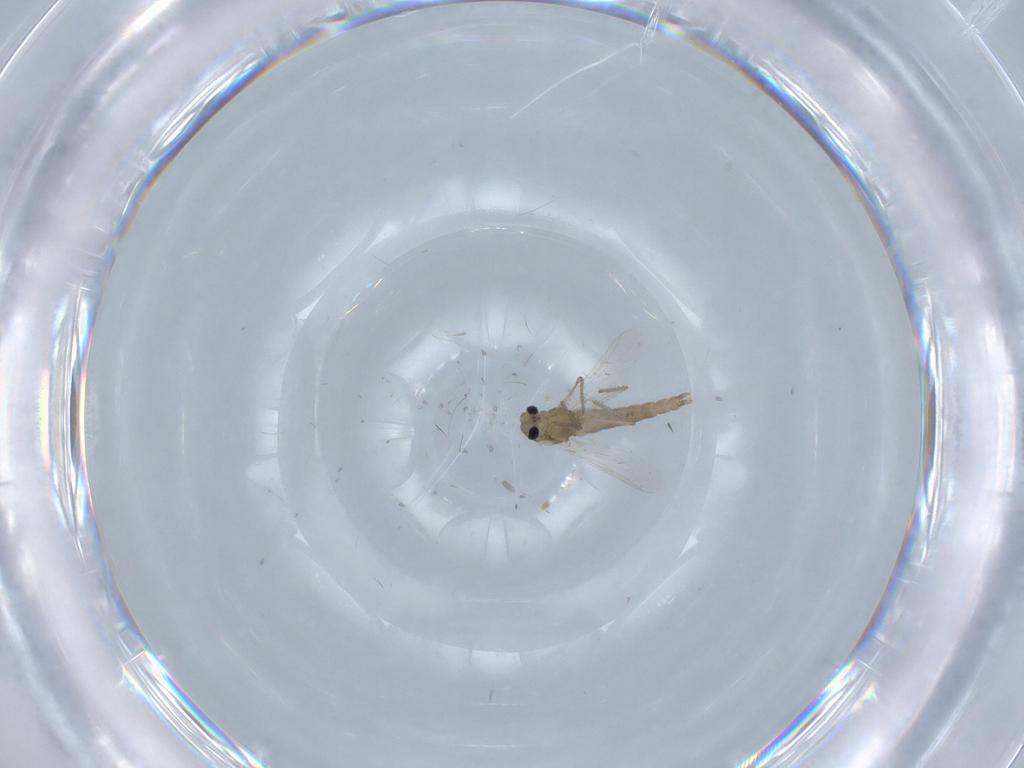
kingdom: Animalia
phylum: Arthropoda
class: Insecta
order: Diptera
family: Chironomidae
